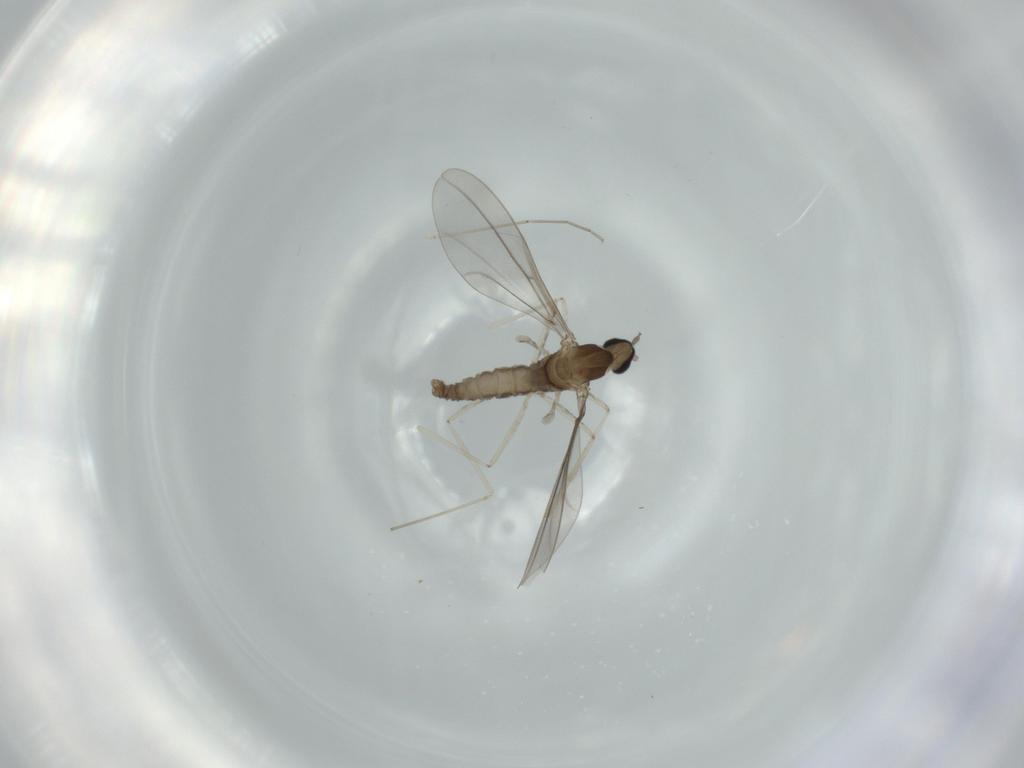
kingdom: Animalia
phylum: Arthropoda
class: Insecta
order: Diptera
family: Cecidomyiidae
